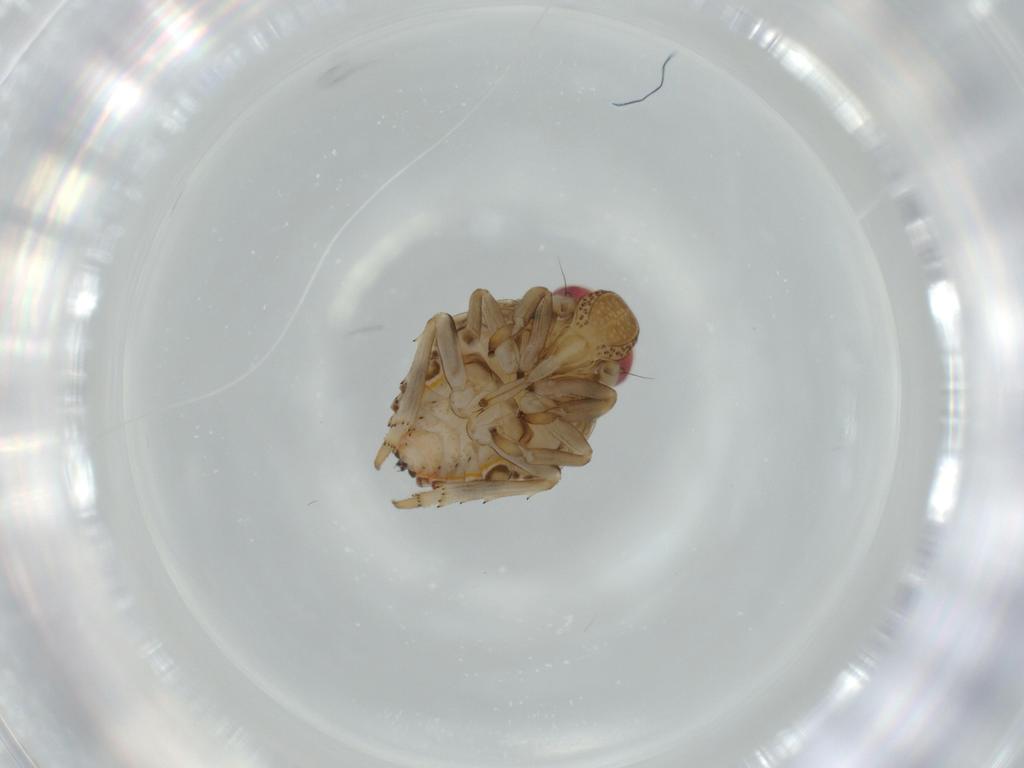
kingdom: Animalia
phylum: Arthropoda
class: Insecta
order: Hemiptera
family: Issidae
